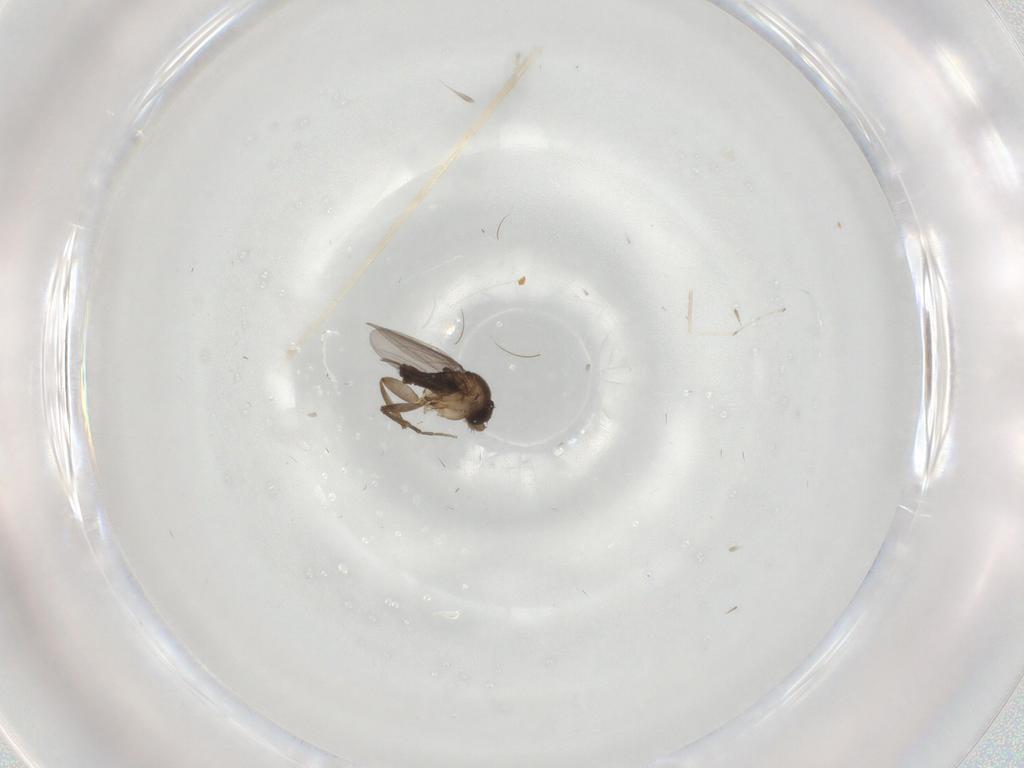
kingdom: Animalia
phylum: Arthropoda
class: Insecta
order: Diptera
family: Phoridae
